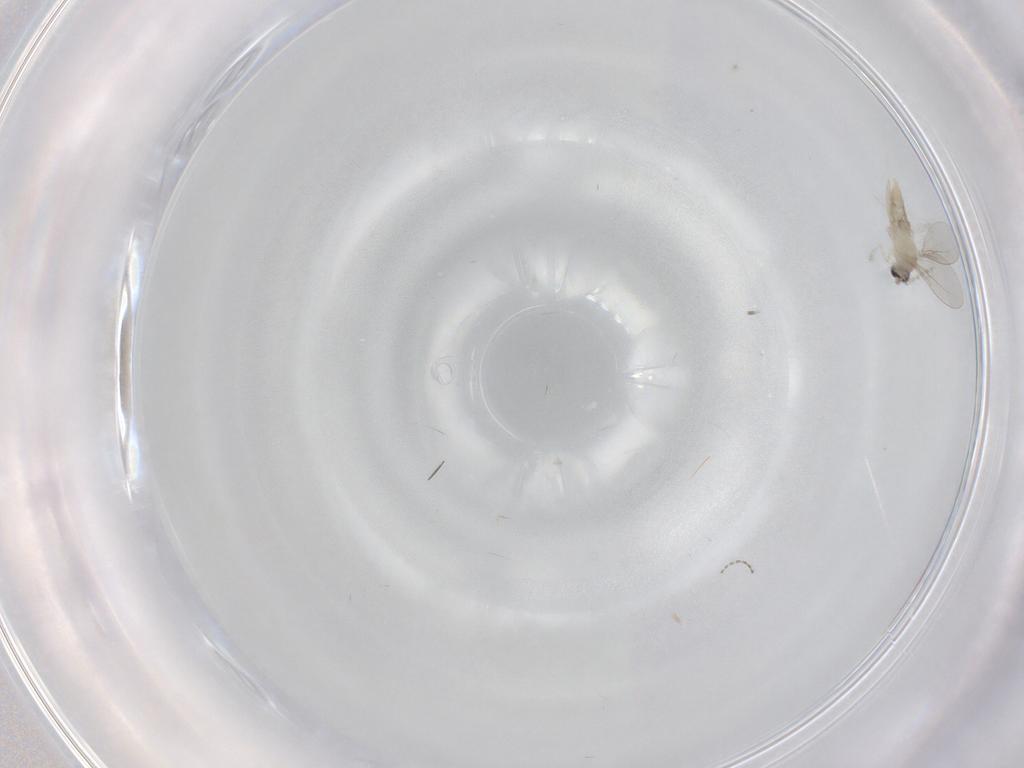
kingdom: Animalia
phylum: Arthropoda
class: Insecta
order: Diptera
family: Cecidomyiidae
